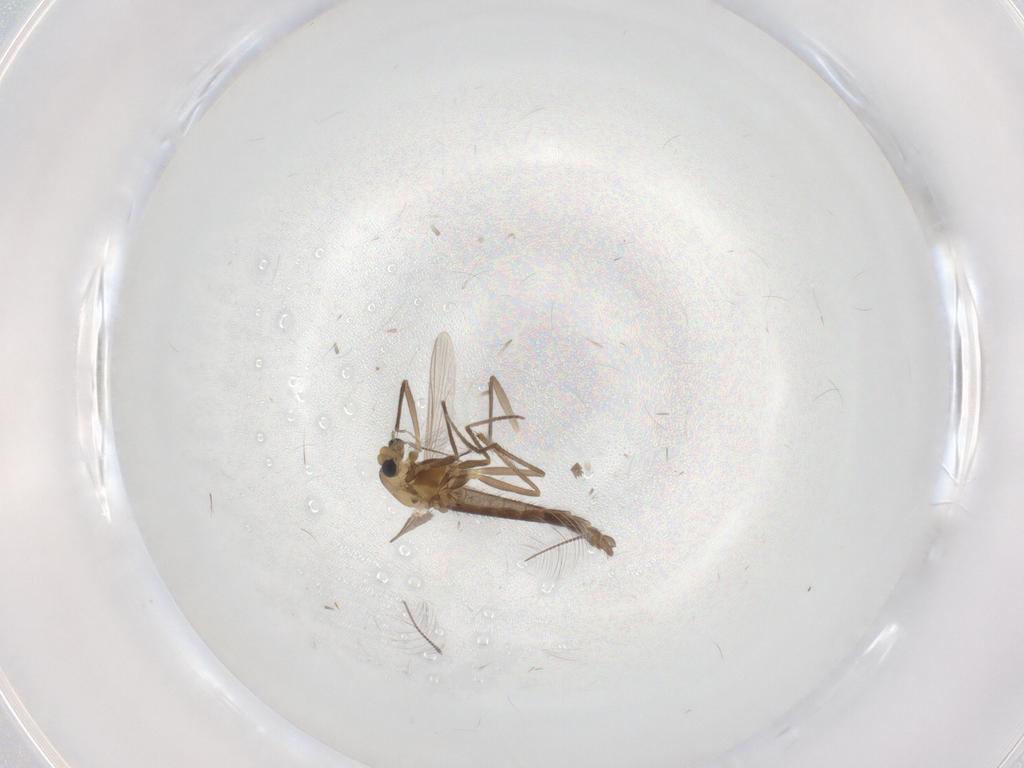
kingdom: Animalia
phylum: Arthropoda
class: Insecta
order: Diptera
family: Chironomidae
